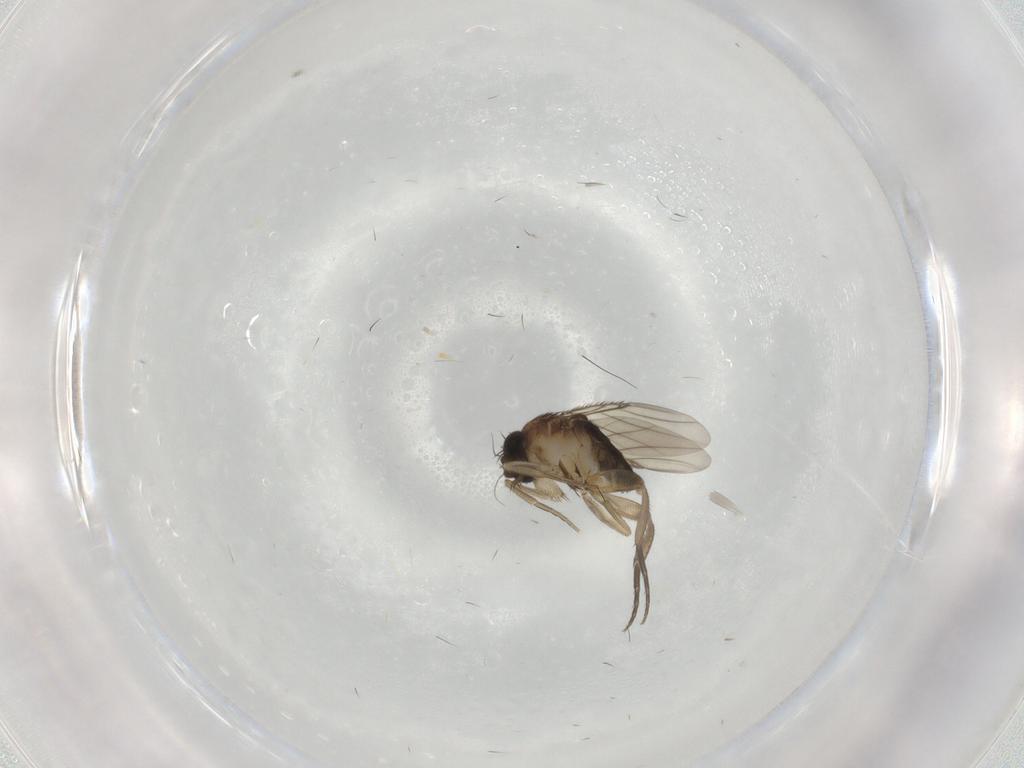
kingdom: Animalia
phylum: Arthropoda
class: Insecta
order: Diptera
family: Phoridae
